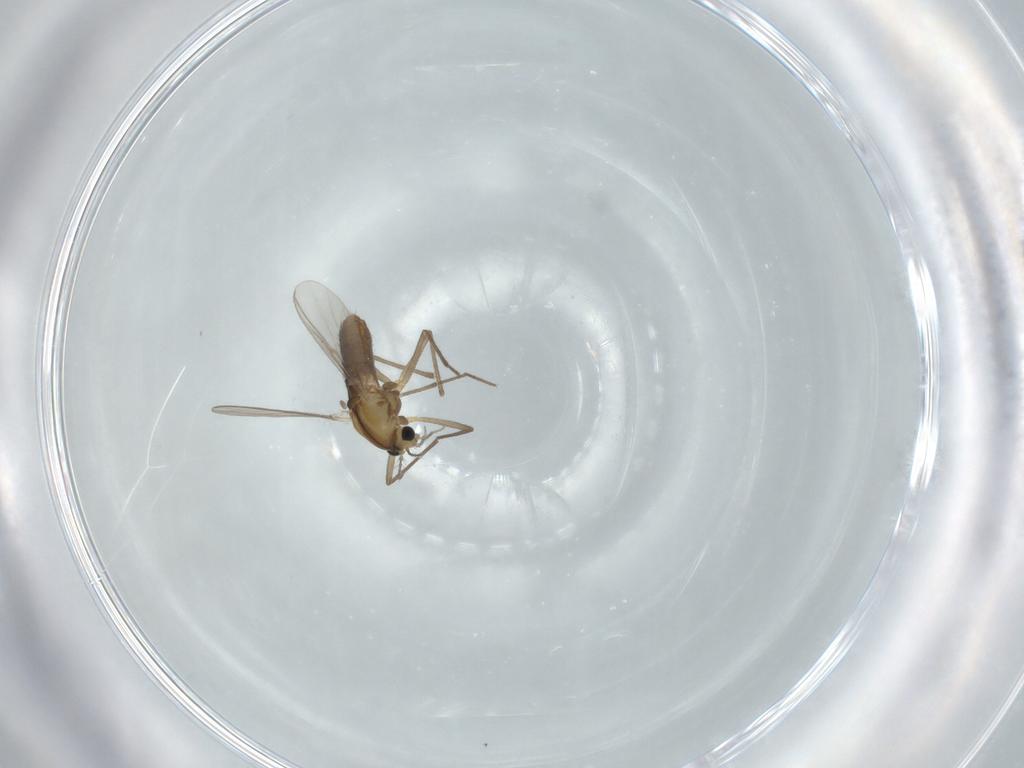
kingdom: Animalia
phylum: Arthropoda
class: Insecta
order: Diptera
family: Chironomidae
